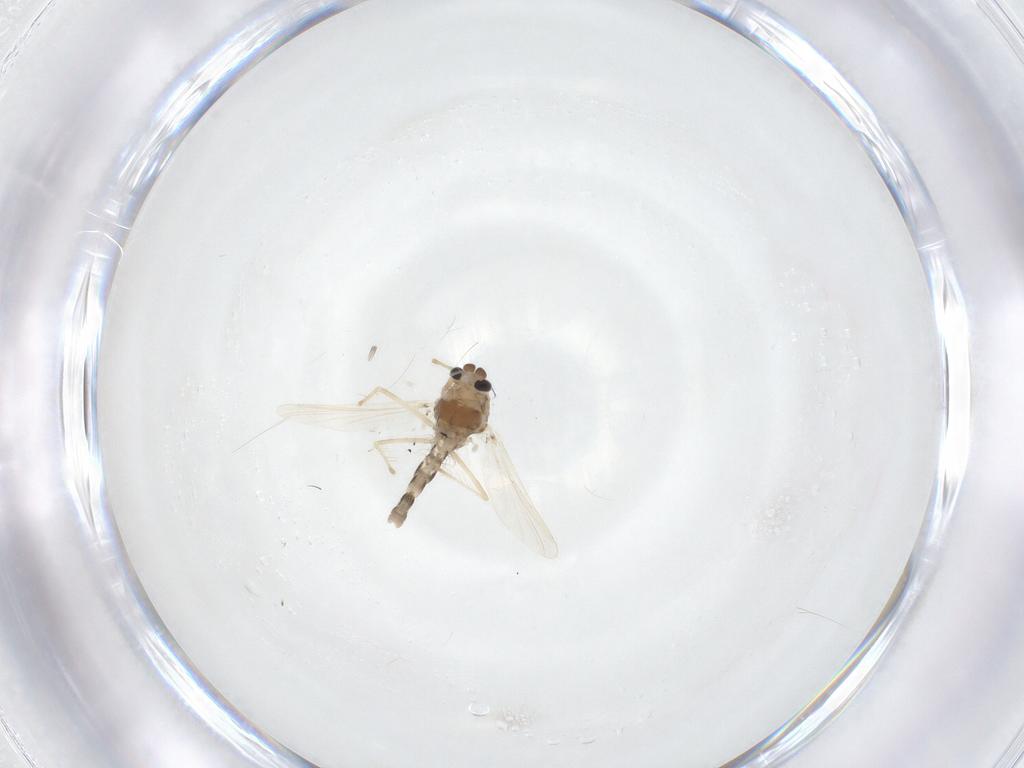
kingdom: Animalia
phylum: Arthropoda
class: Insecta
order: Diptera
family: Chironomidae
